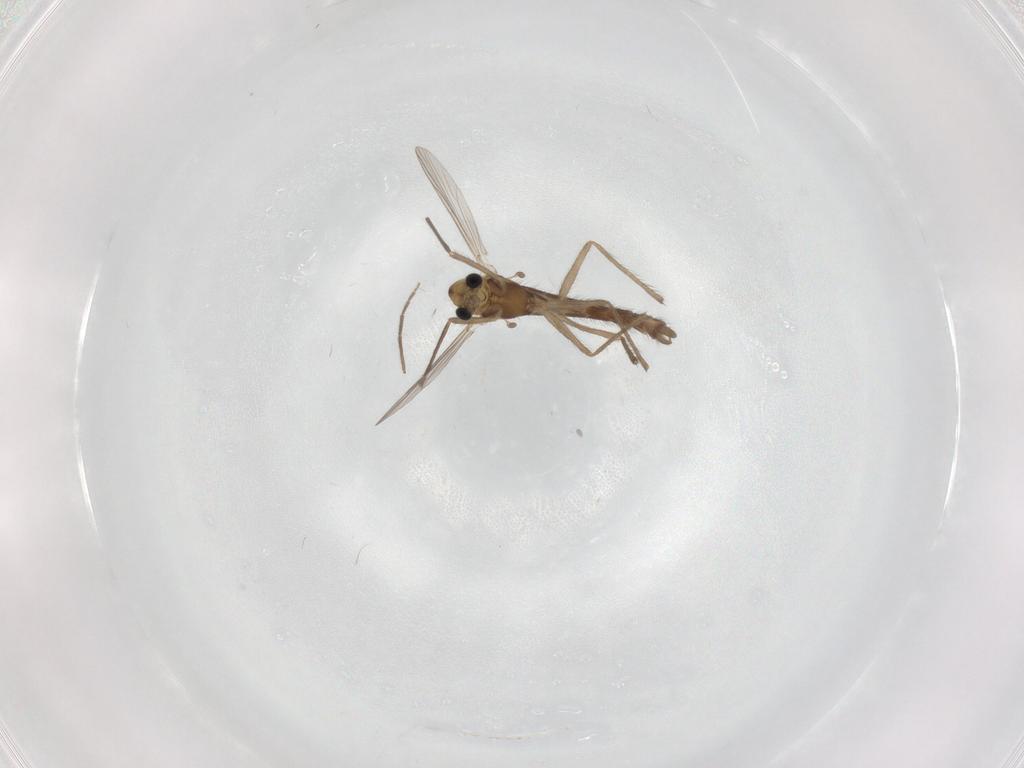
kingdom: Animalia
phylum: Arthropoda
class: Insecta
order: Diptera
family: Chironomidae
